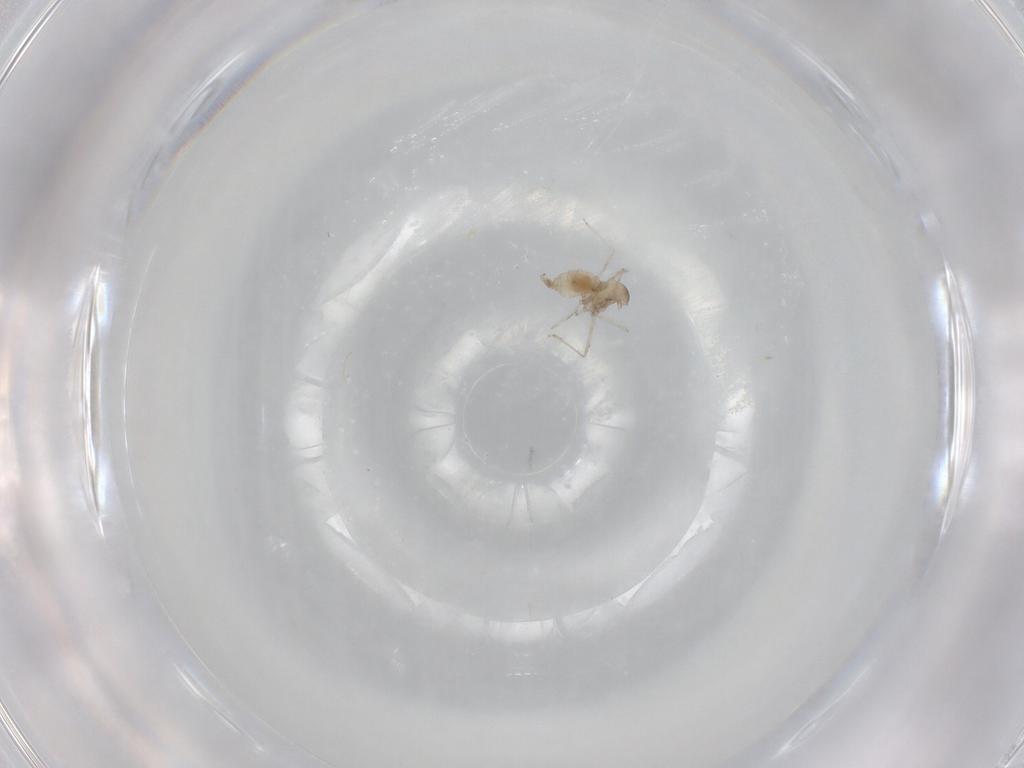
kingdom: Animalia
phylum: Arthropoda
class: Insecta
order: Diptera
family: Cecidomyiidae
